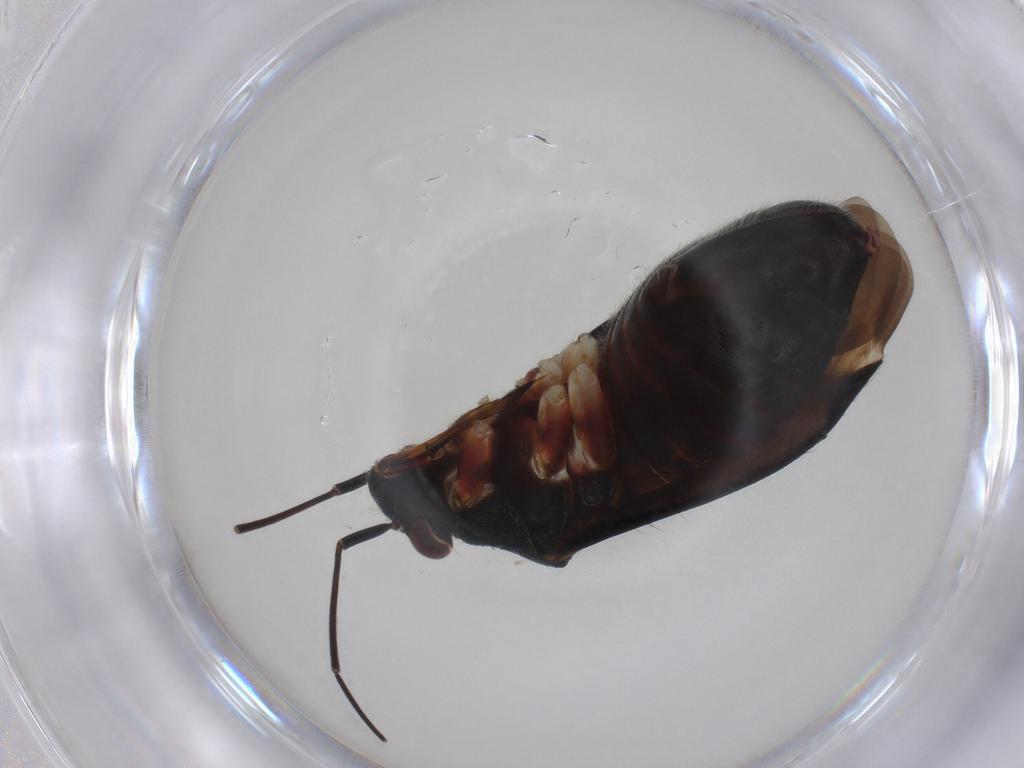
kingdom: Animalia
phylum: Arthropoda
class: Insecta
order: Hemiptera
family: Miridae
